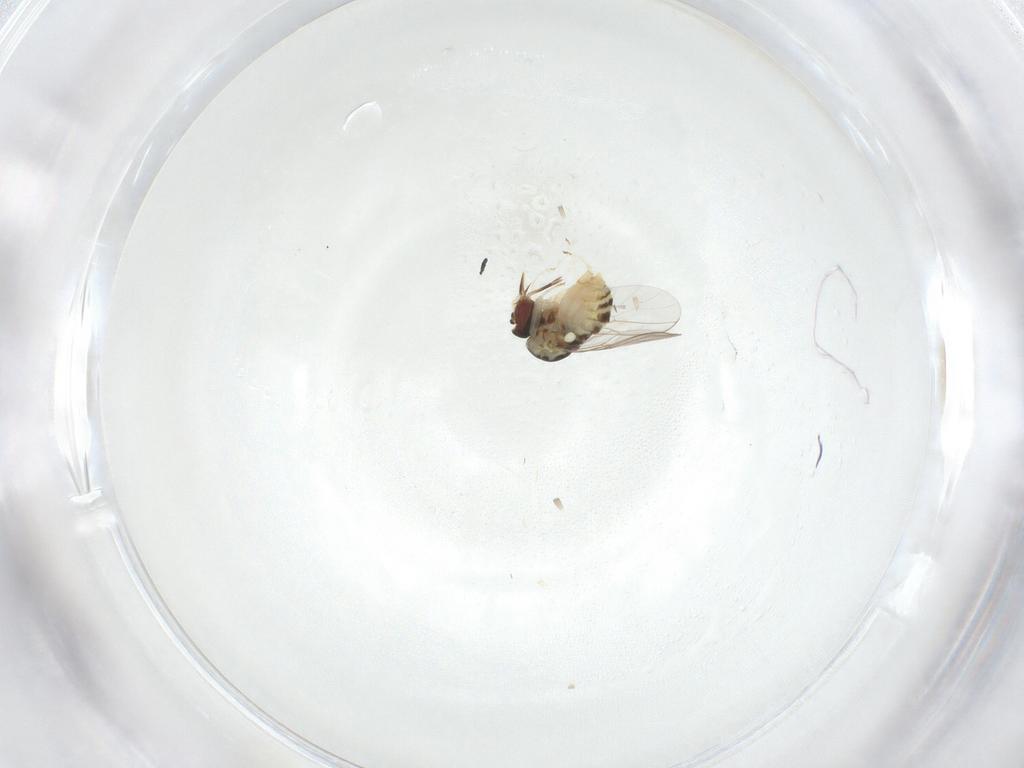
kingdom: Animalia
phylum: Arthropoda
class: Insecta
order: Diptera
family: Mythicomyiidae
